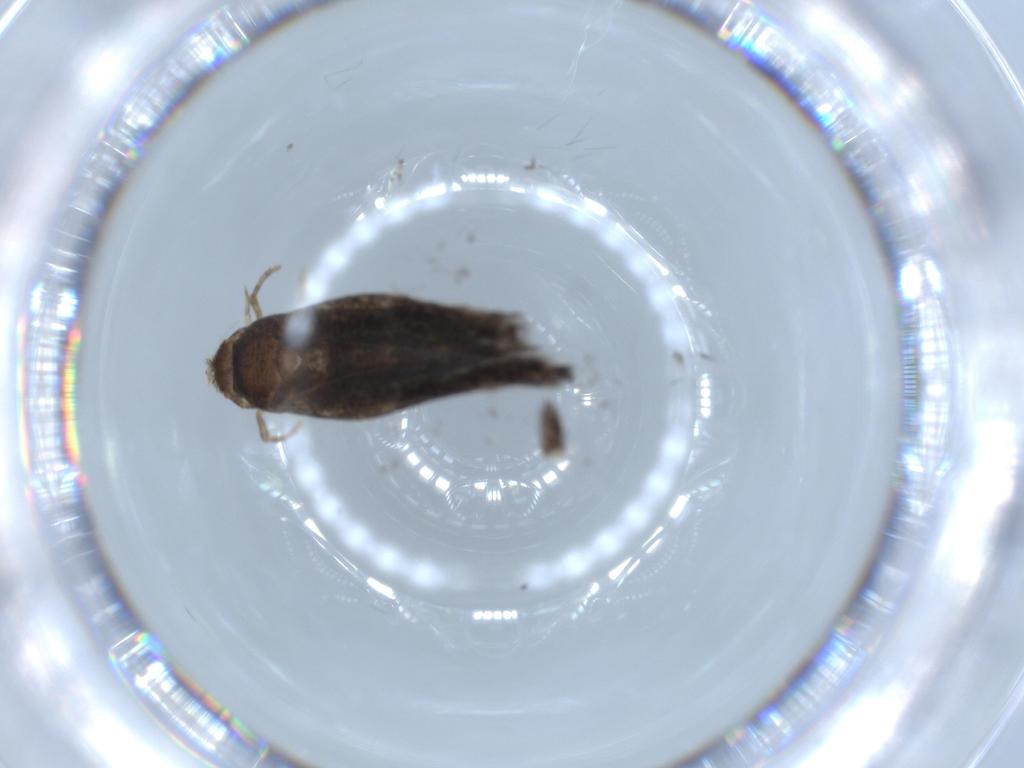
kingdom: Animalia
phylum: Arthropoda
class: Insecta
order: Lepidoptera
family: Gelechiidae
